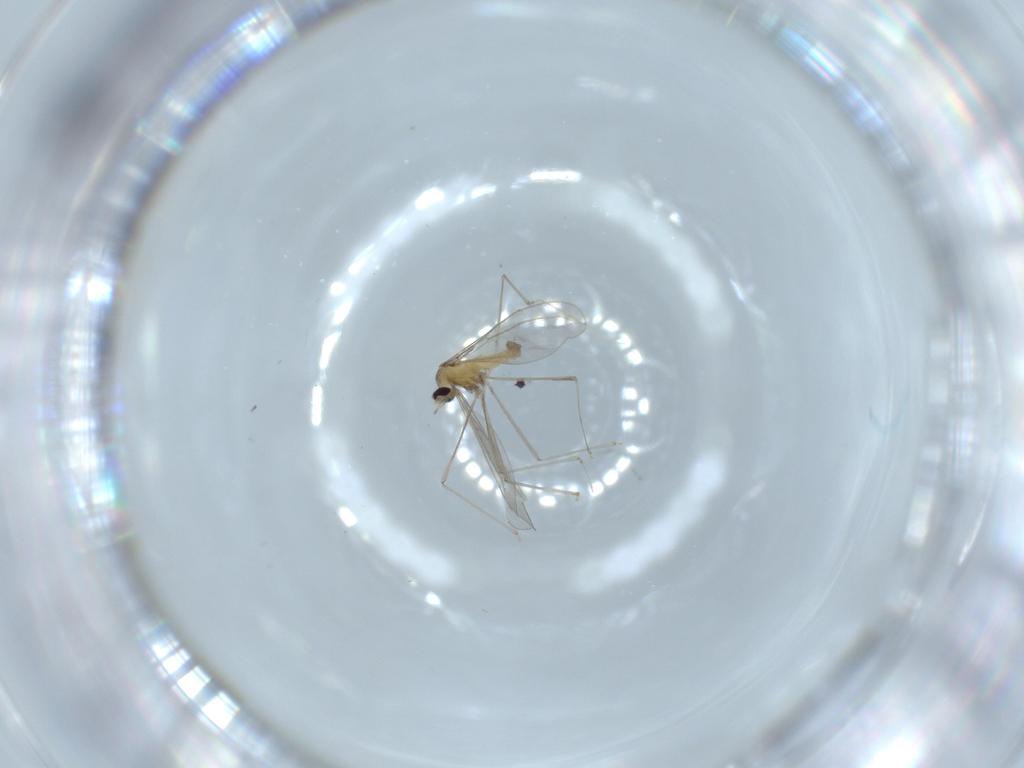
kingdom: Animalia
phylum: Arthropoda
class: Insecta
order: Diptera
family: Cecidomyiidae
